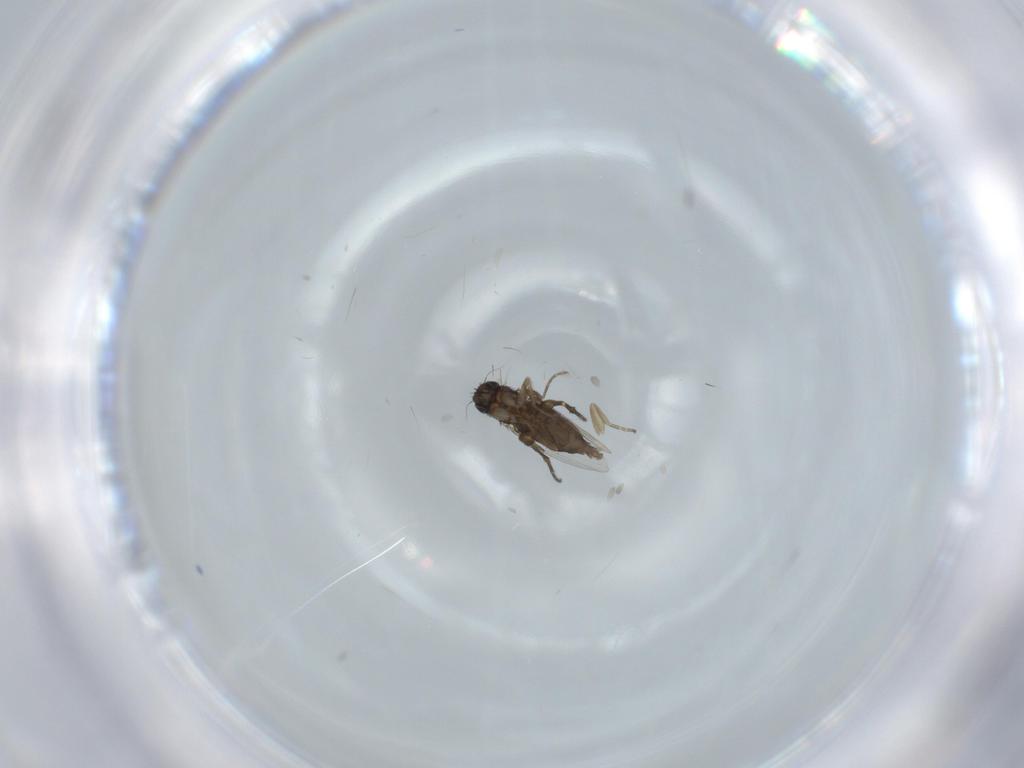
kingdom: Animalia
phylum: Arthropoda
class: Insecta
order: Diptera
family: Phoridae
